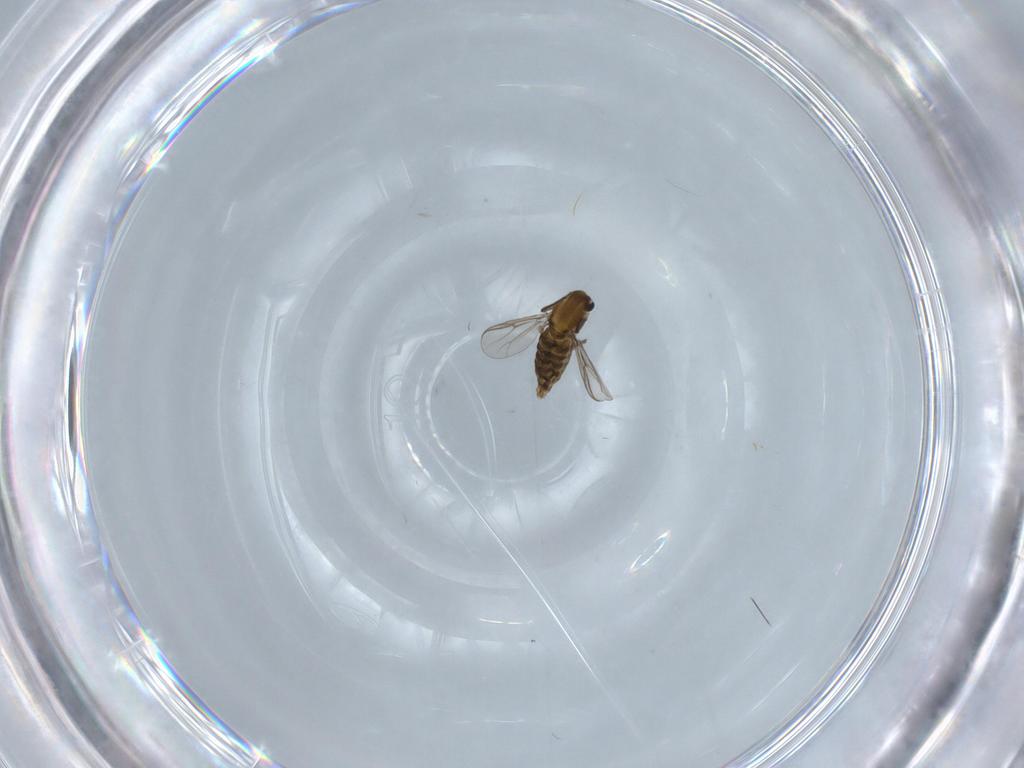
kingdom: Animalia
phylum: Arthropoda
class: Insecta
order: Diptera
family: Chironomidae
